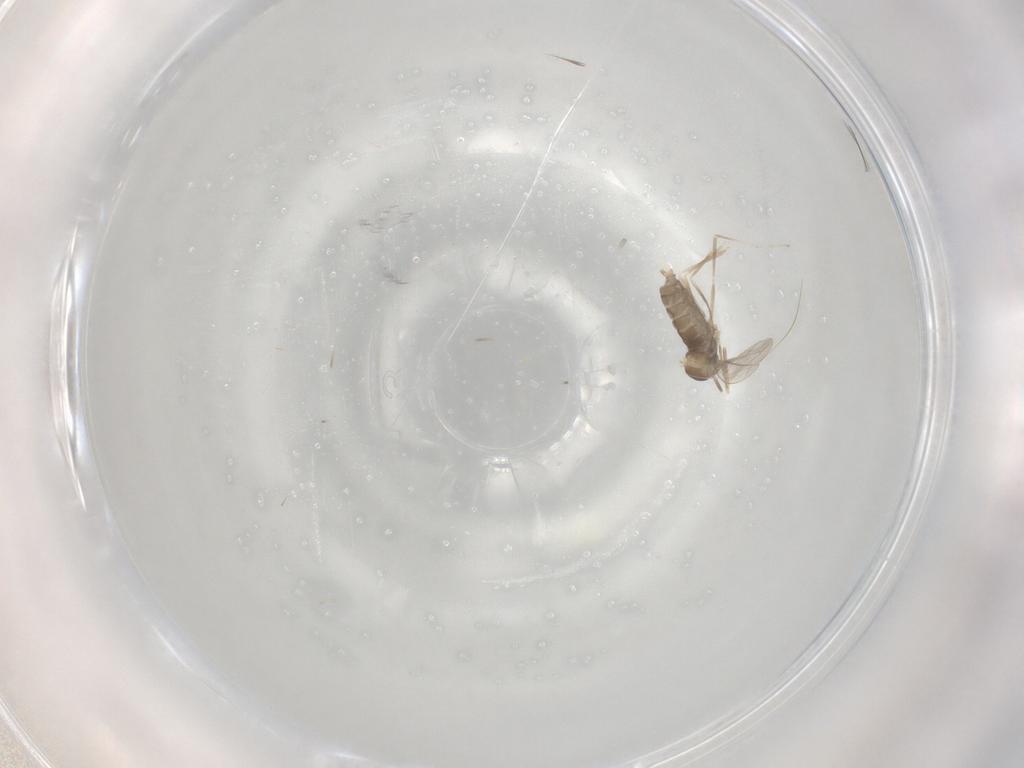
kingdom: Animalia
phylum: Arthropoda
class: Insecta
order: Diptera
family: Cecidomyiidae
